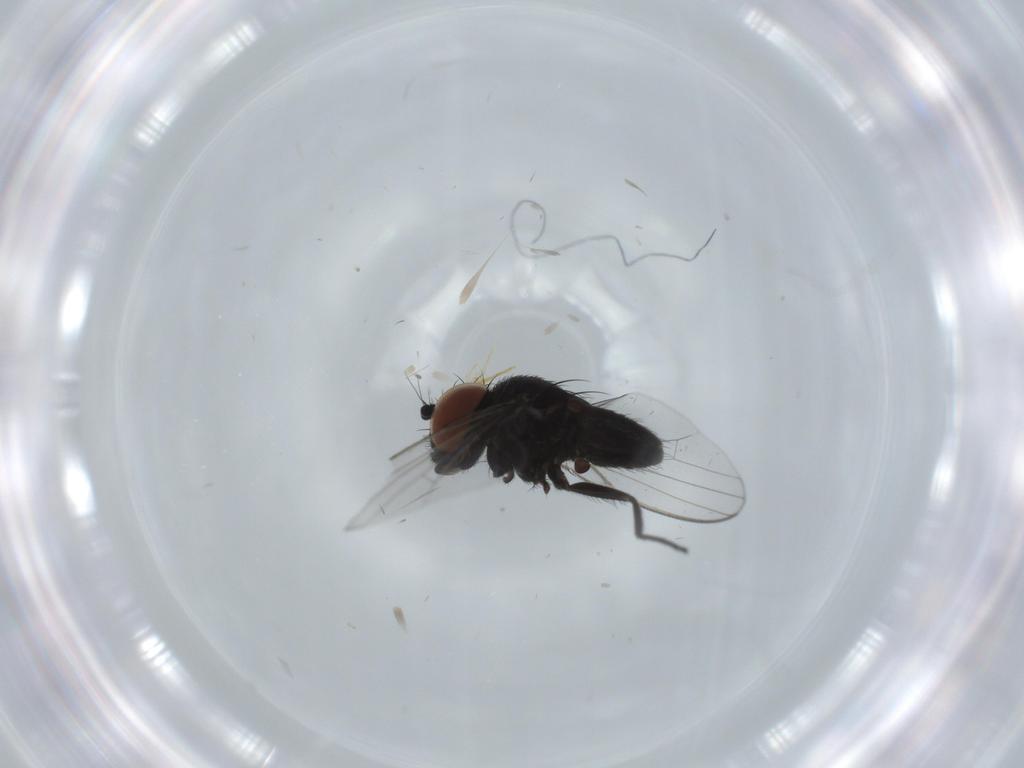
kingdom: Animalia
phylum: Arthropoda
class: Insecta
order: Diptera
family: Milichiidae
